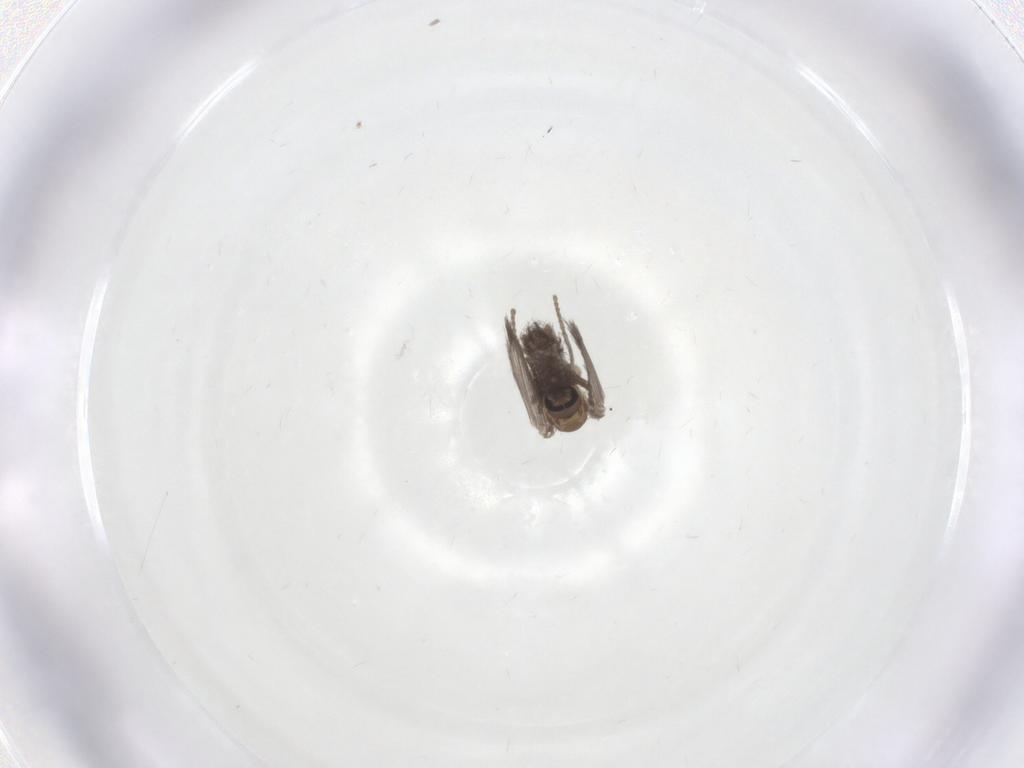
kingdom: Animalia
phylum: Arthropoda
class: Insecta
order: Diptera
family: Psychodidae
